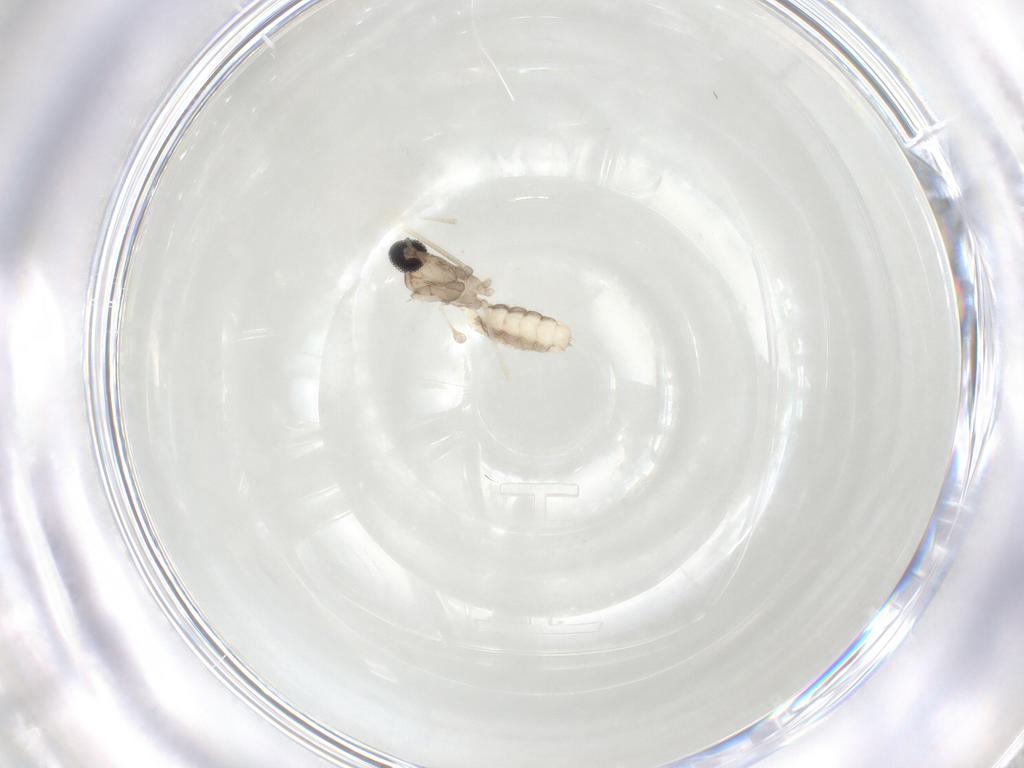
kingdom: Animalia
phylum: Arthropoda
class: Insecta
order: Diptera
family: Cecidomyiidae
